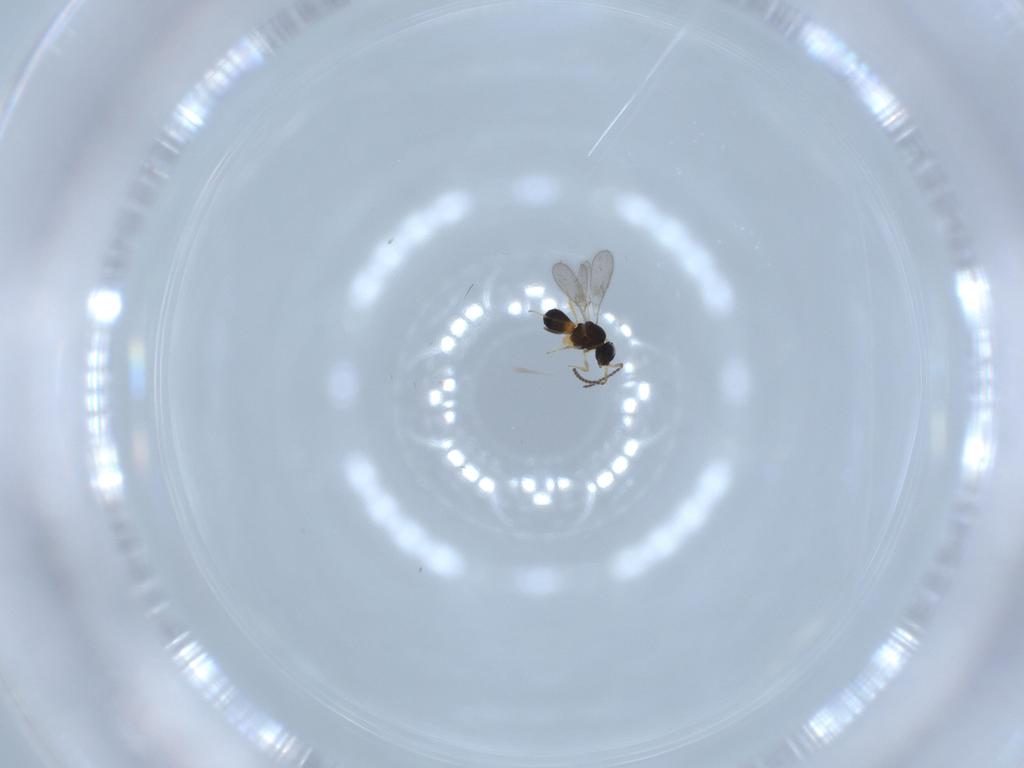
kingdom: Animalia
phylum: Arthropoda
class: Insecta
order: Hymenoptera
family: Scelionidae
